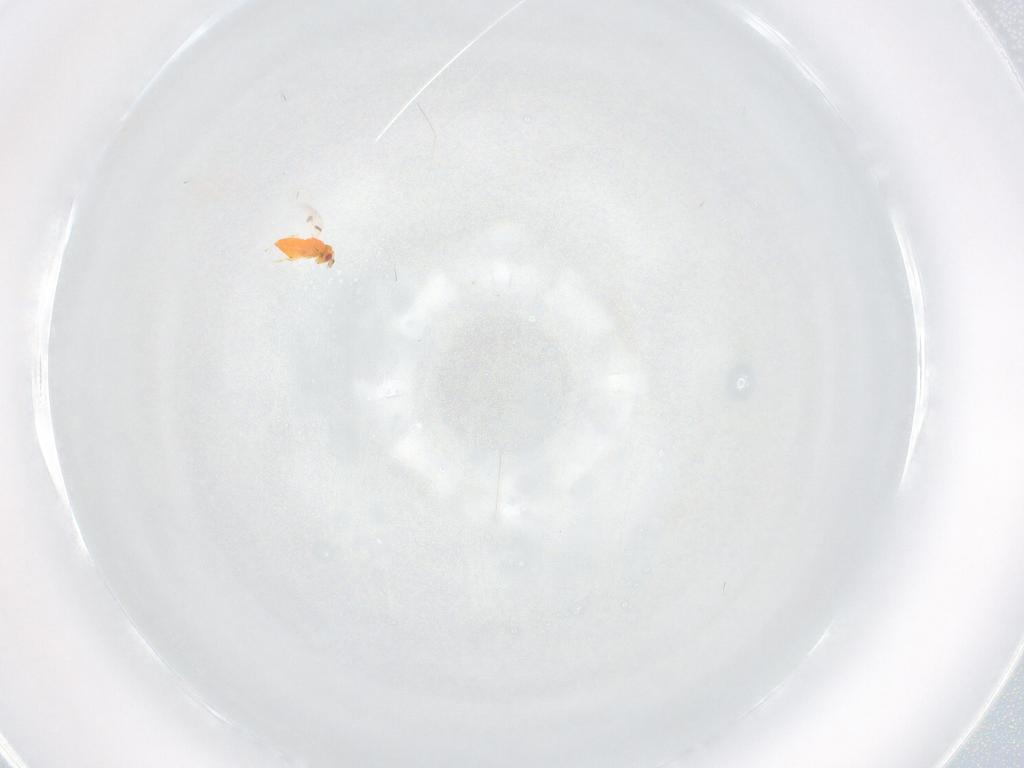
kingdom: Animalia
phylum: Arthropoda
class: Insecta
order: Hymenoptera
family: Trichogrammatidae
